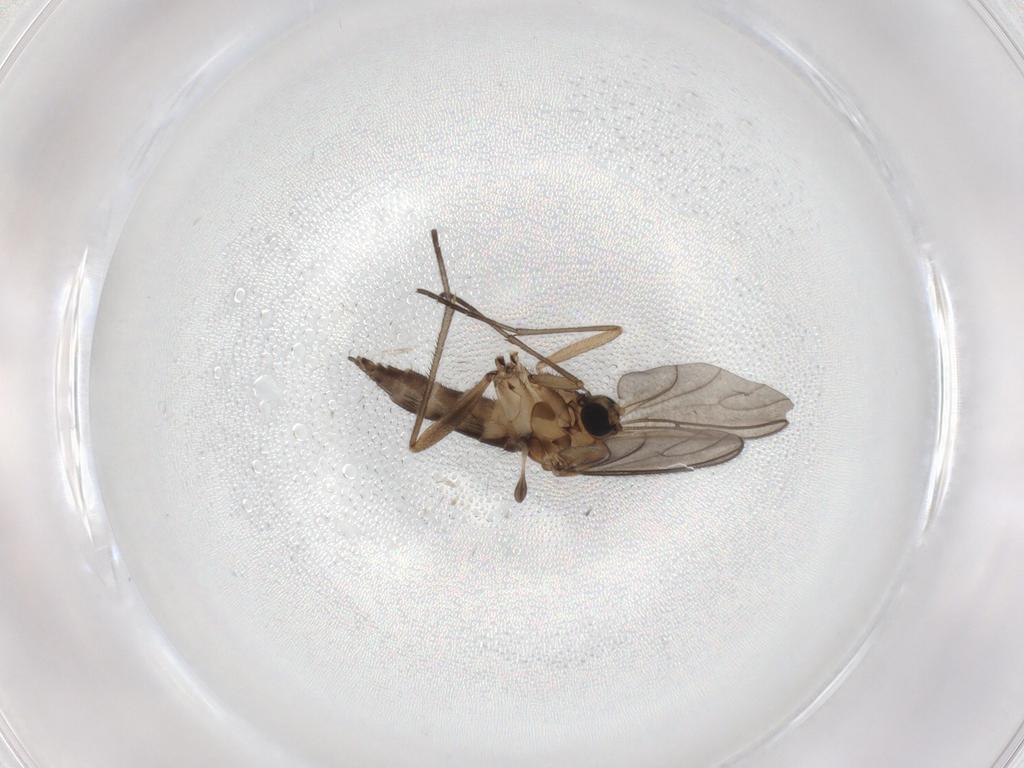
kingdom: Animalia
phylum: Arthropoda
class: Insecta
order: Diptera
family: Sciaridae
